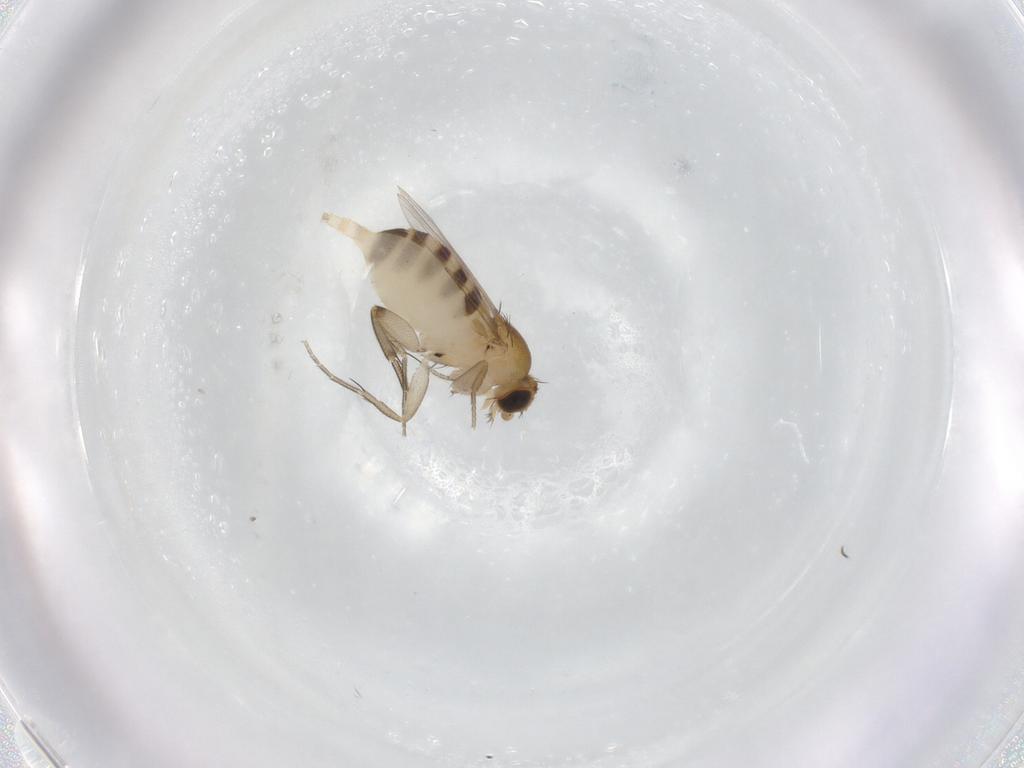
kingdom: Animalia
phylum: Arthropoda
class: Insecta
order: Diptera
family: Phoridae
